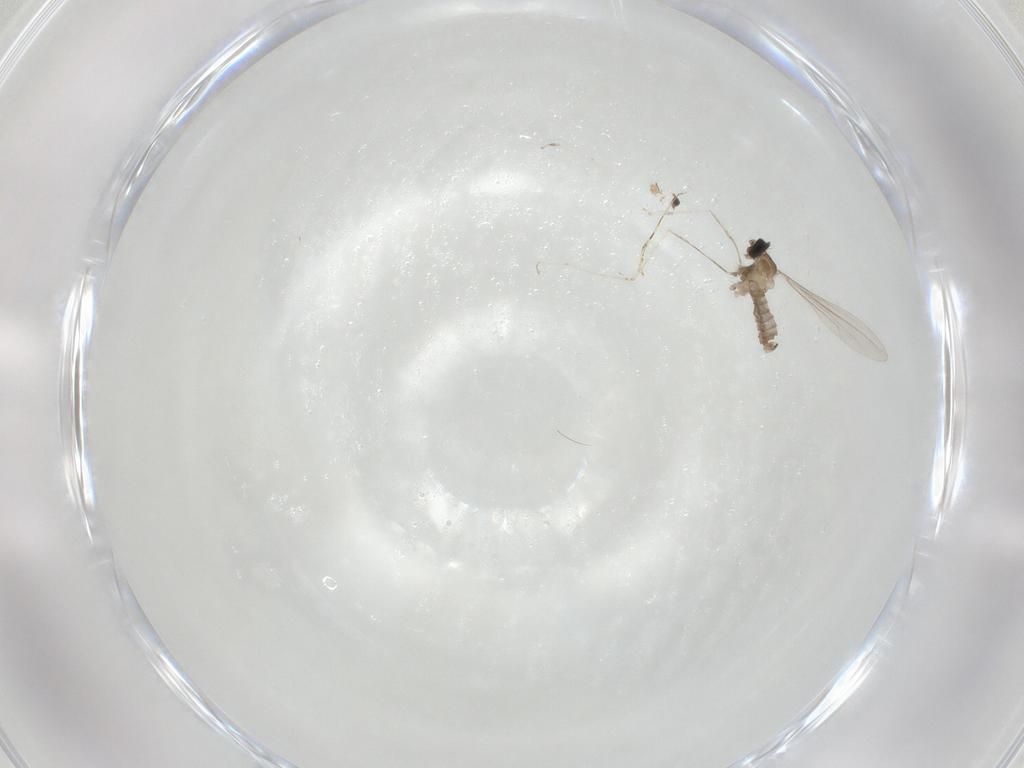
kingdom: Animalia
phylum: Arthropoda
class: Insecta
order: Diptera
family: Cecidomyiidae
